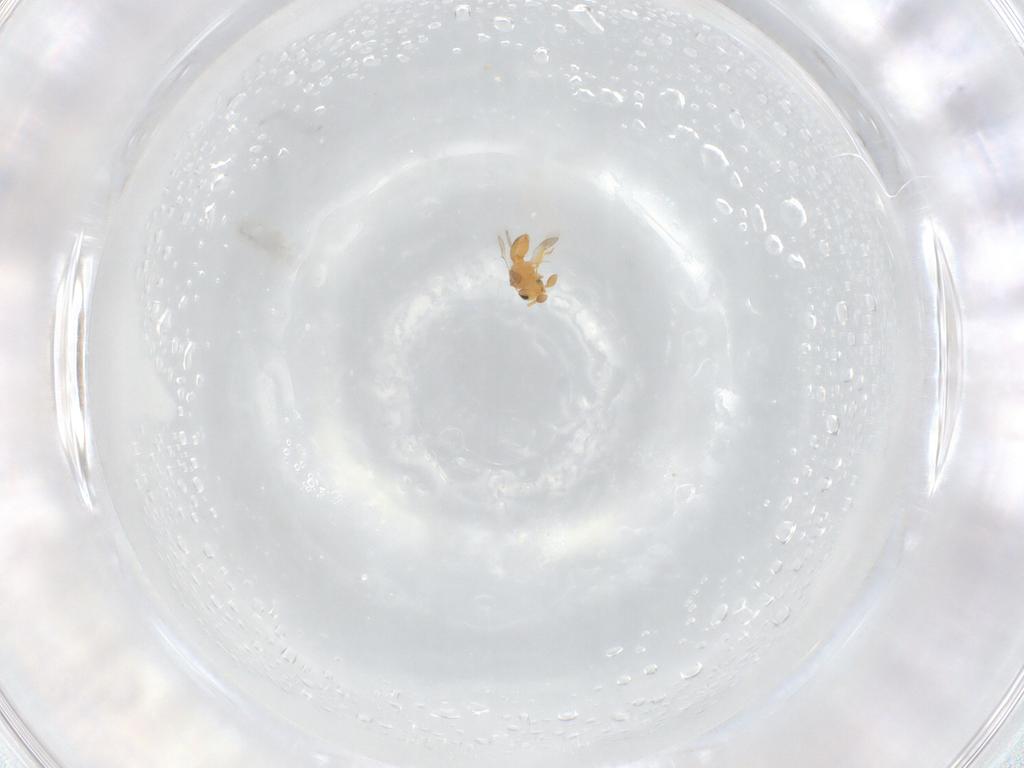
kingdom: Animalia
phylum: Arthropoda
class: Insecta
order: Hymenoptera
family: Scelionidae
